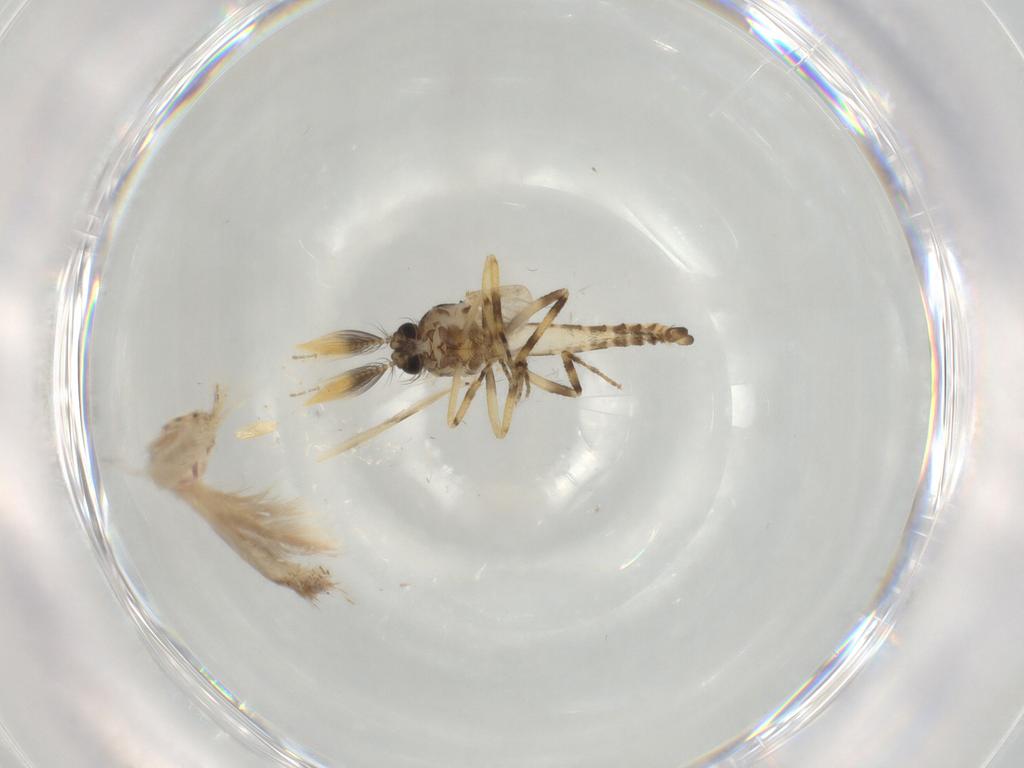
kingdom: Animalia
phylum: Arthropoda
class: Insecta
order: Diptera
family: Ceratopogonidae
